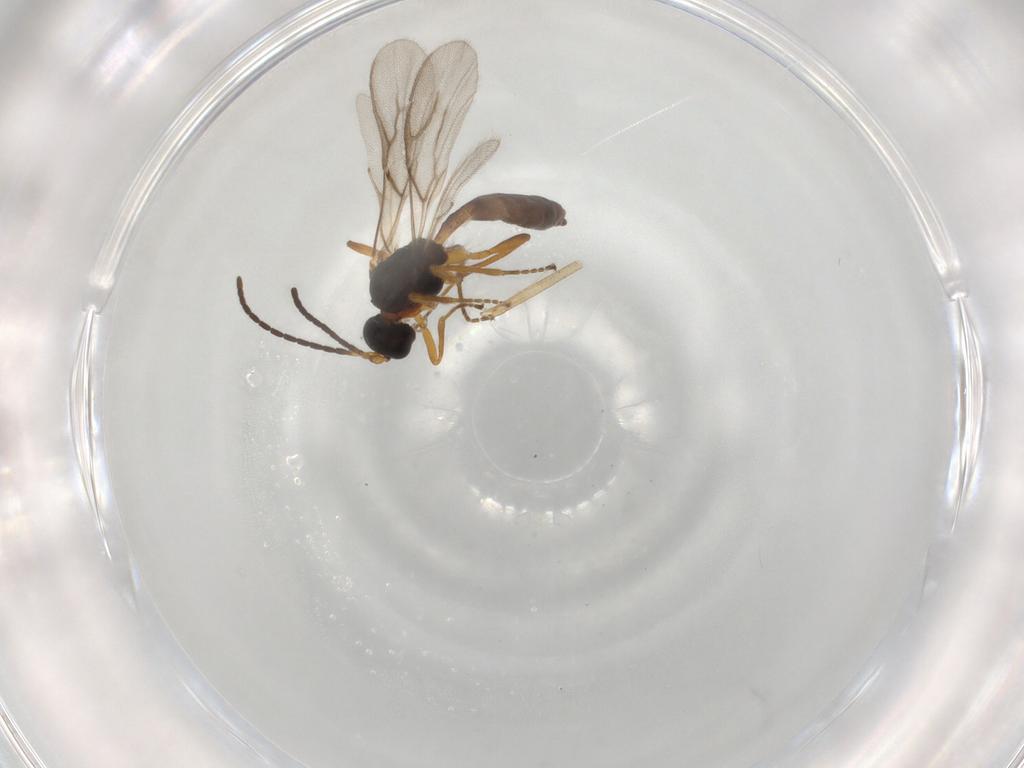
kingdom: Animalia
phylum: Arthropoda
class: Insecta
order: Hymenoptera
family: Braconidae
